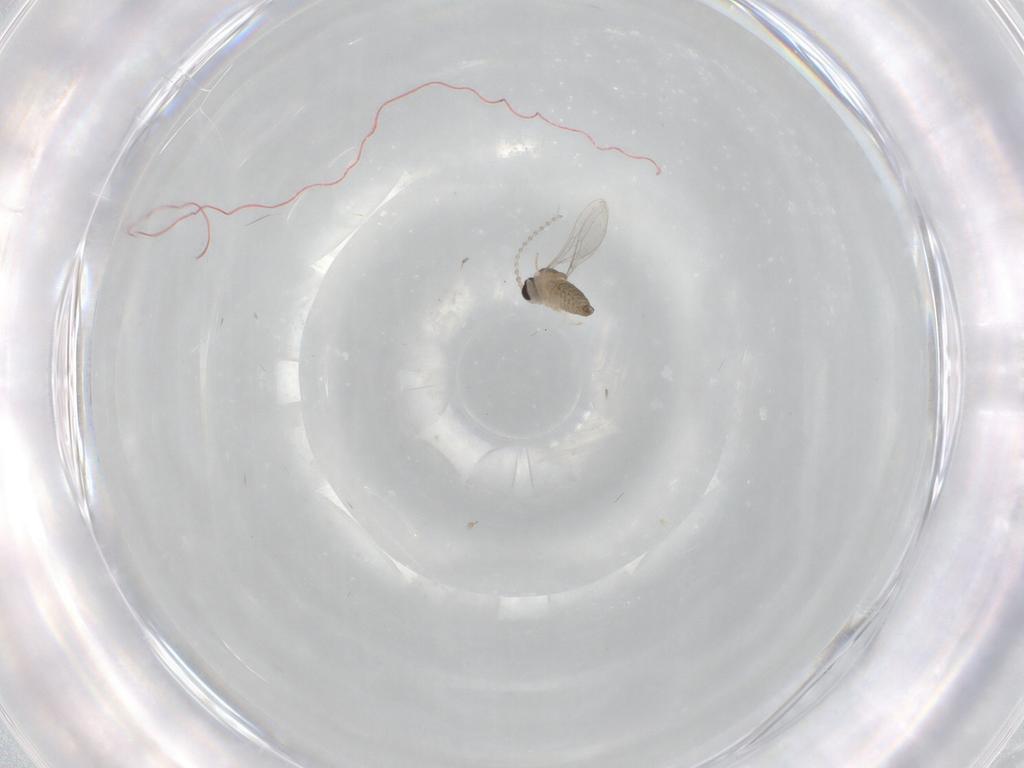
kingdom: Animalia
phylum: Arthropoda
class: Insecta
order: Diptera
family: Cecidomyiidae
